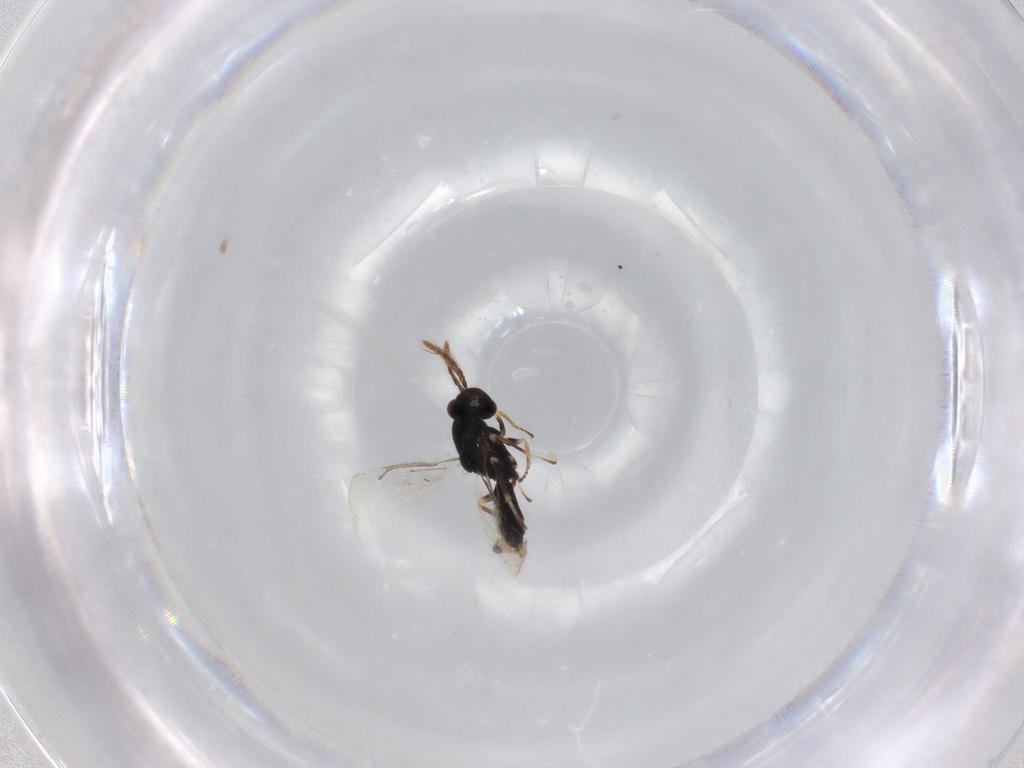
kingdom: Animalia
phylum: Arthropoda
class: Insecta
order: Hymenoptera
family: Eulophidae
